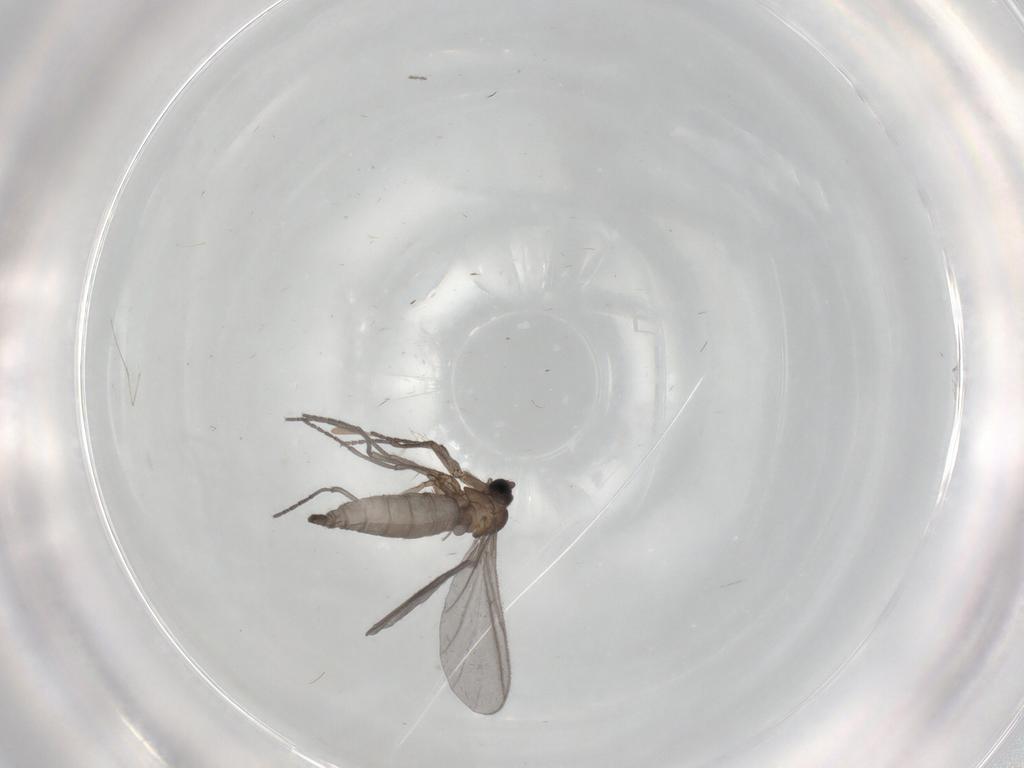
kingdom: Animalia
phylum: Arthropoda
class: Insecta
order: Diptera
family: Sciaridae
